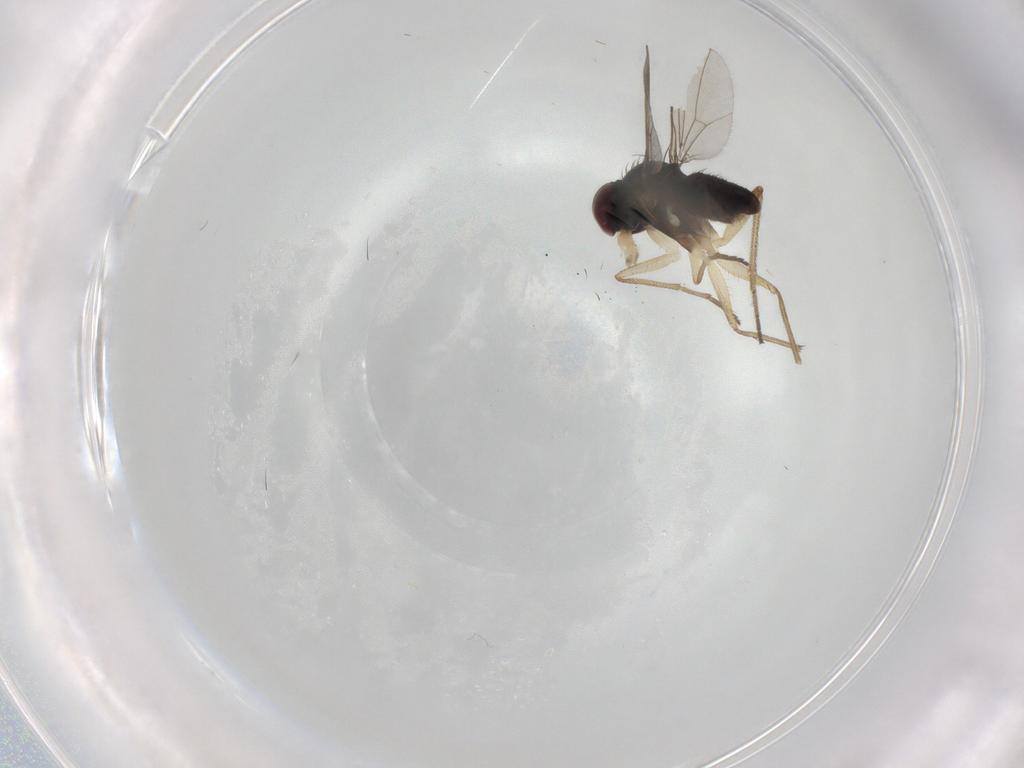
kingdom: Animalia
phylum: Arthropoda
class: Insecta
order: Diptera
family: Dolichopodidae
